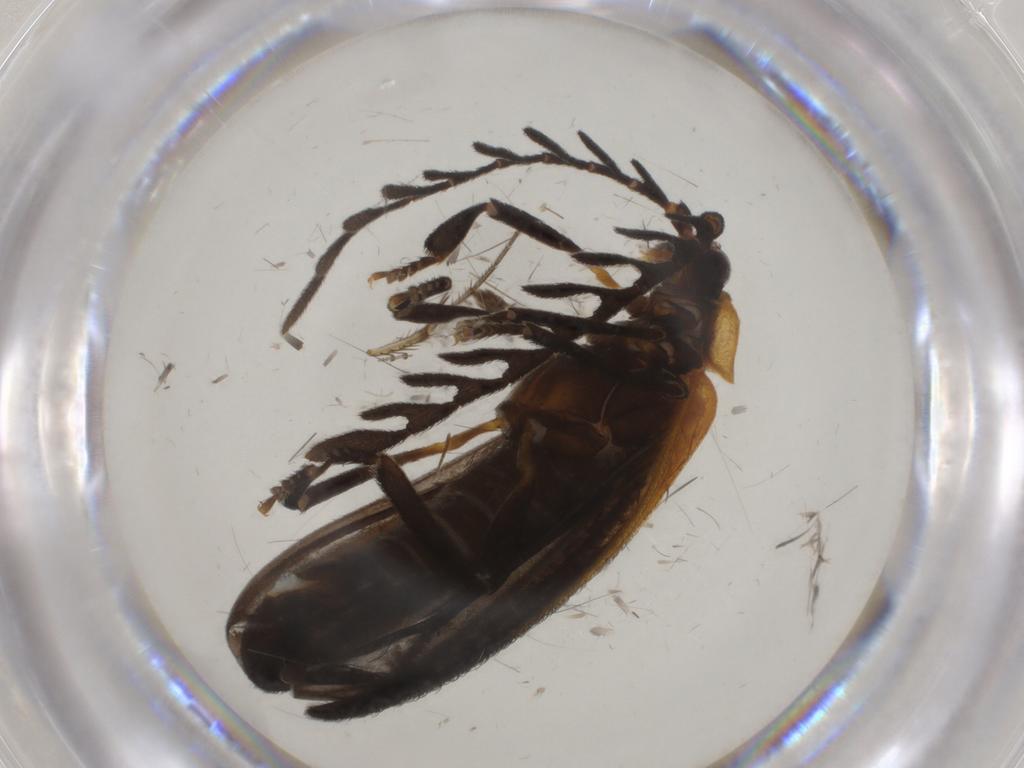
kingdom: Animalia
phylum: Arthropoda
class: Insecta
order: Coleoptera
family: Lycidae
